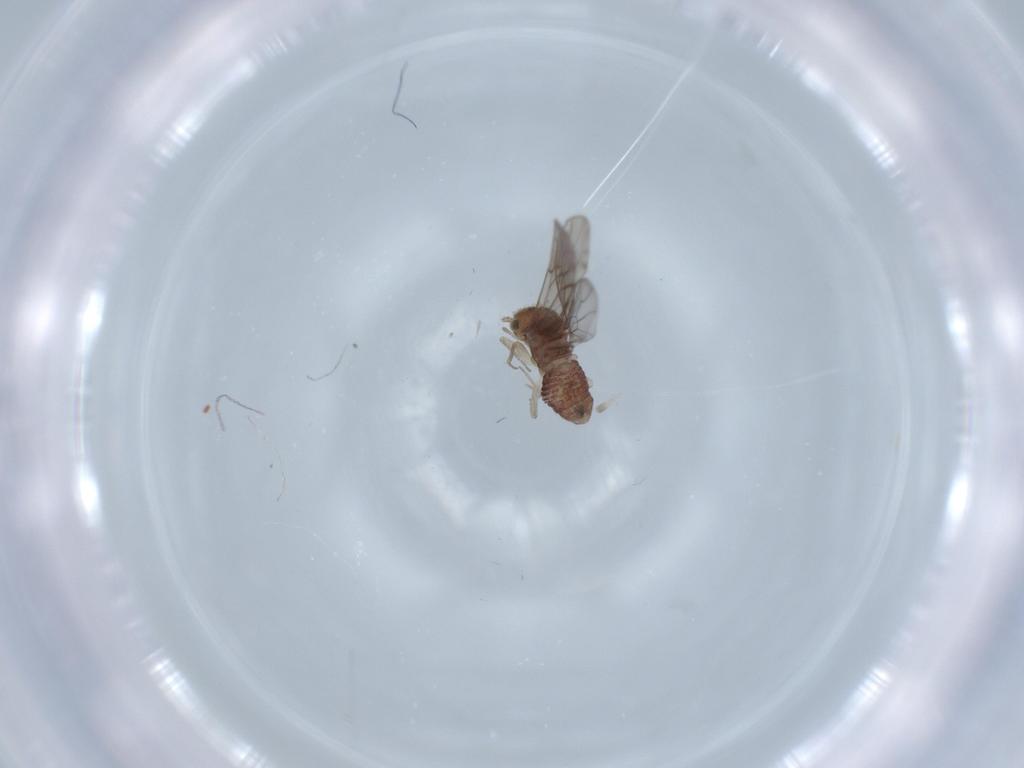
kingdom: Animalia
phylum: Arthropoda
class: Insecta
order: Psocodea
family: Ectopsocidae
